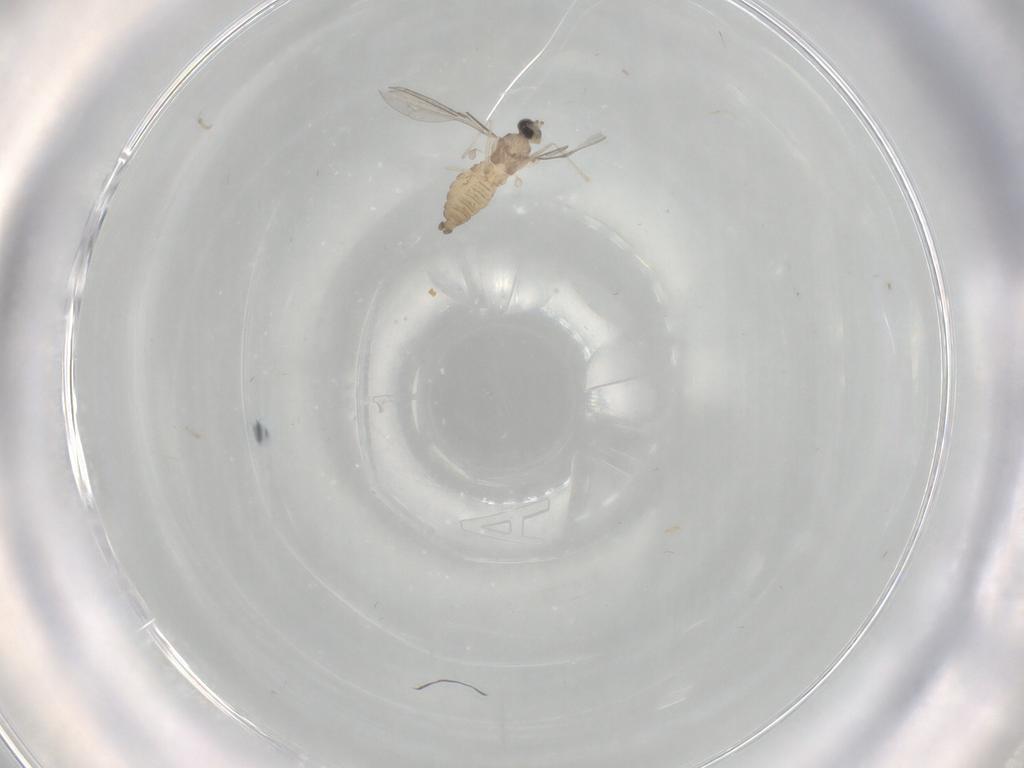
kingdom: Animalia
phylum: Arthropoda
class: Insecta
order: Diptera
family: Cecidomyiidae
